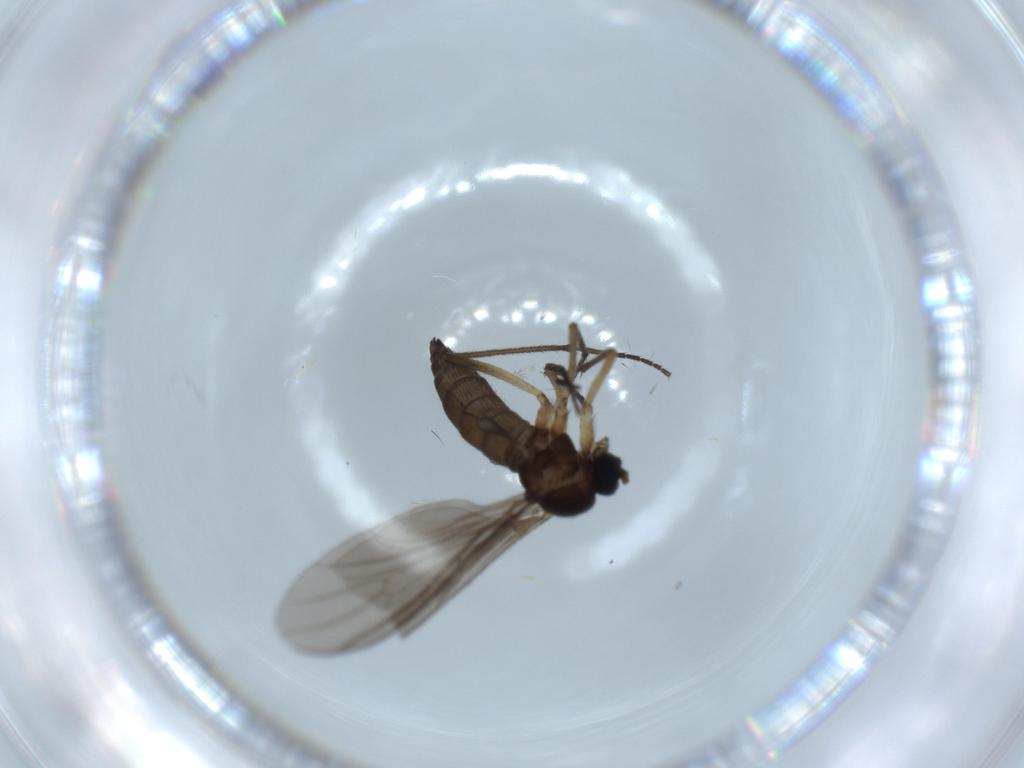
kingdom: Animalia
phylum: Arthropoda
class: Insecta
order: Diptera
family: Sciaridae
